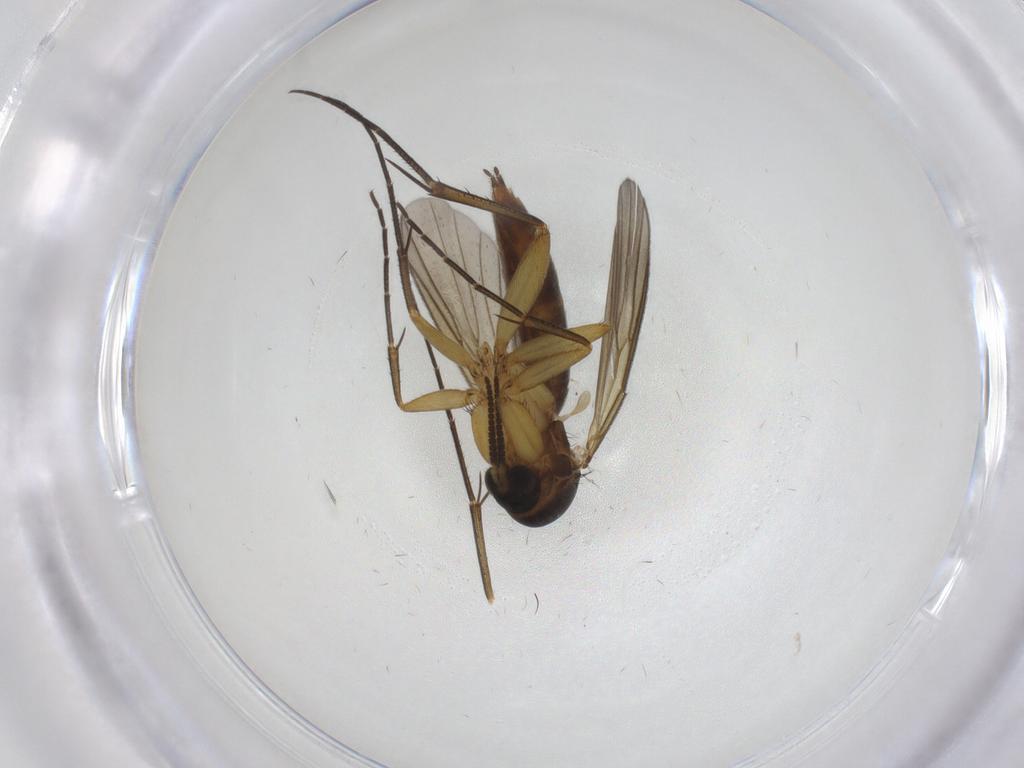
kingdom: Animalia
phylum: Arthropoda
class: Insecta
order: Diptera
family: Mycetophilidae
